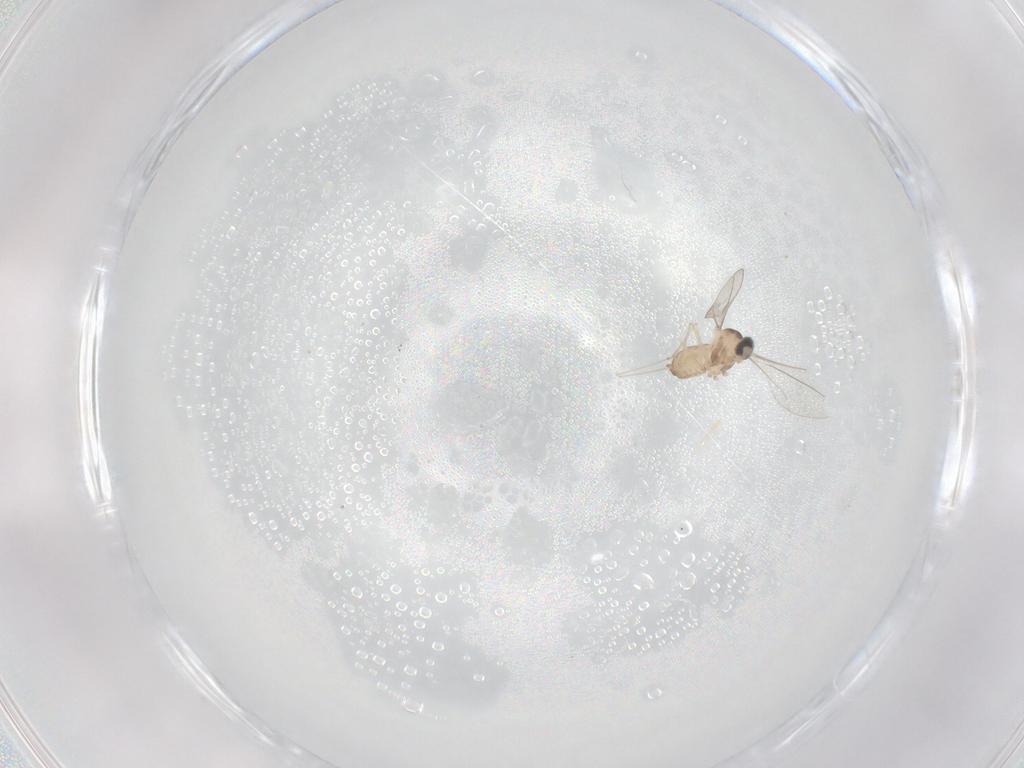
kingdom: Animalia
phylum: Arthropoda
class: Insecta
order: Diptera
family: Cecidomyiidae
